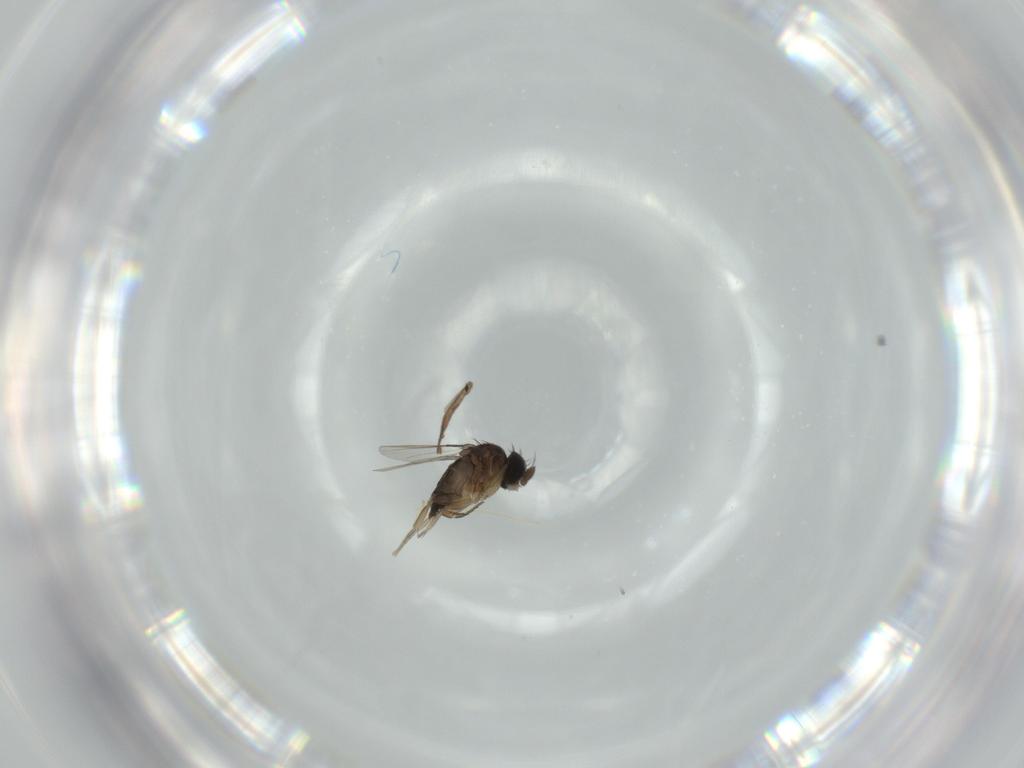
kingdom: Animalia
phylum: Arthropoda
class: Insecta
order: Diptera
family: Phoridae
